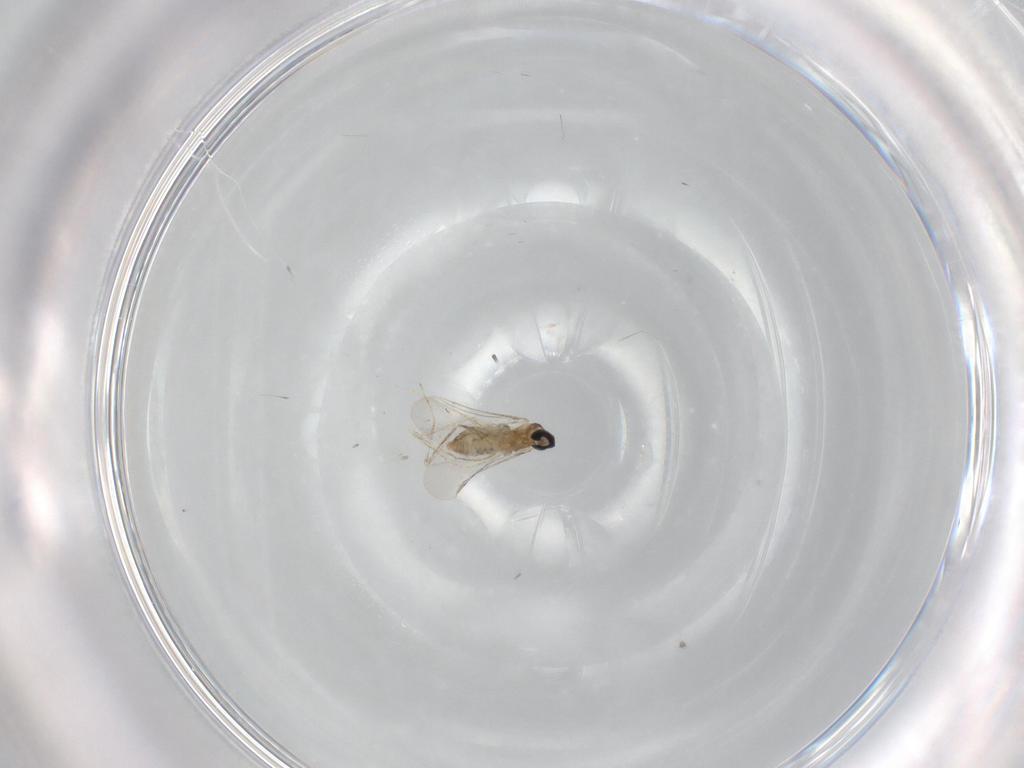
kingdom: Animalia
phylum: Arthropoda
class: Insecta
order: Diptera
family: Cecidomyiidae
